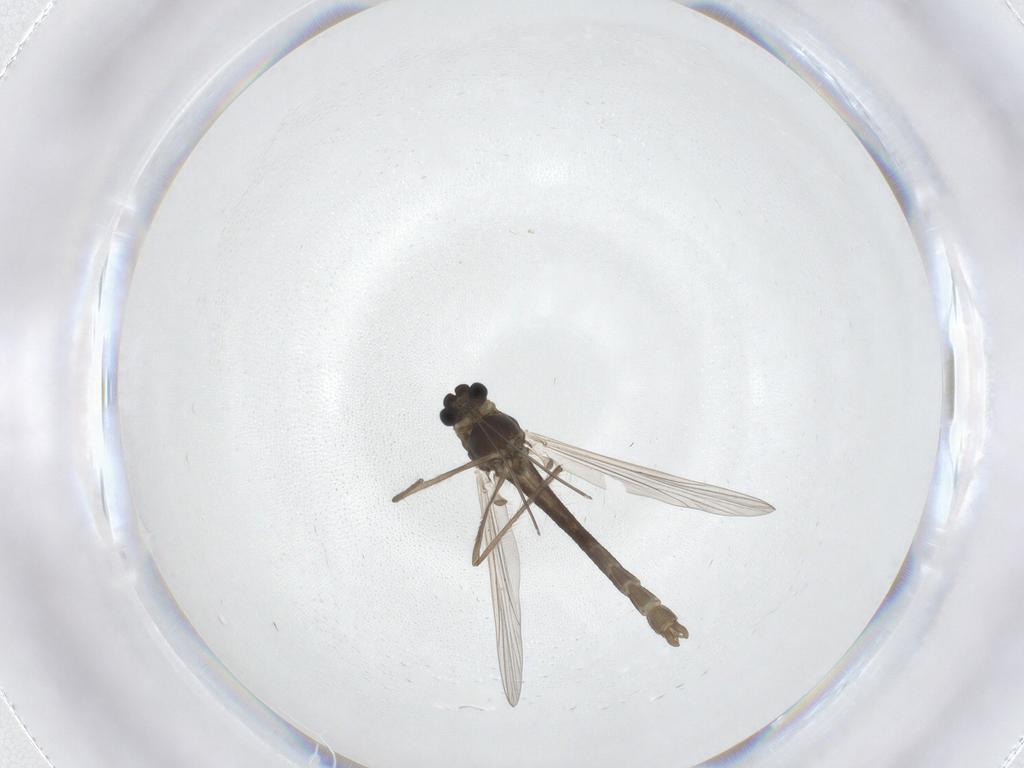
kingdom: Animalia
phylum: Arthropoda
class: Insecta
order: Diptera
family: Chironomidae
